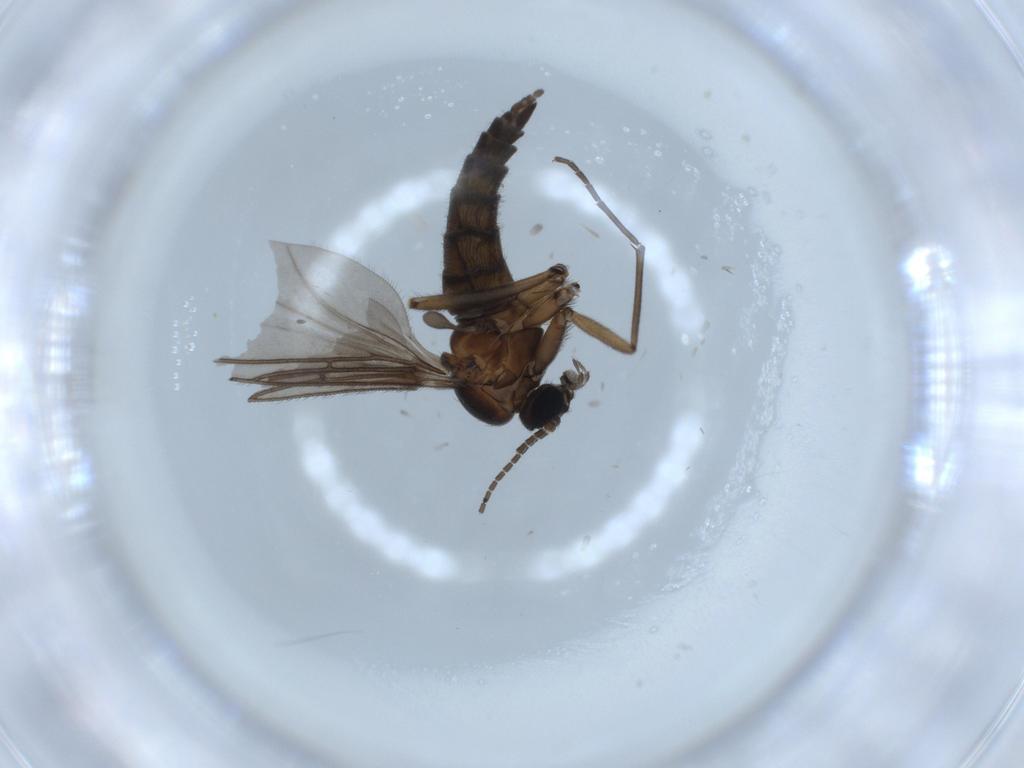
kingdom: Animalia
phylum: Arthropoda
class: Insecta
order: Diptera
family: Sciaridae
